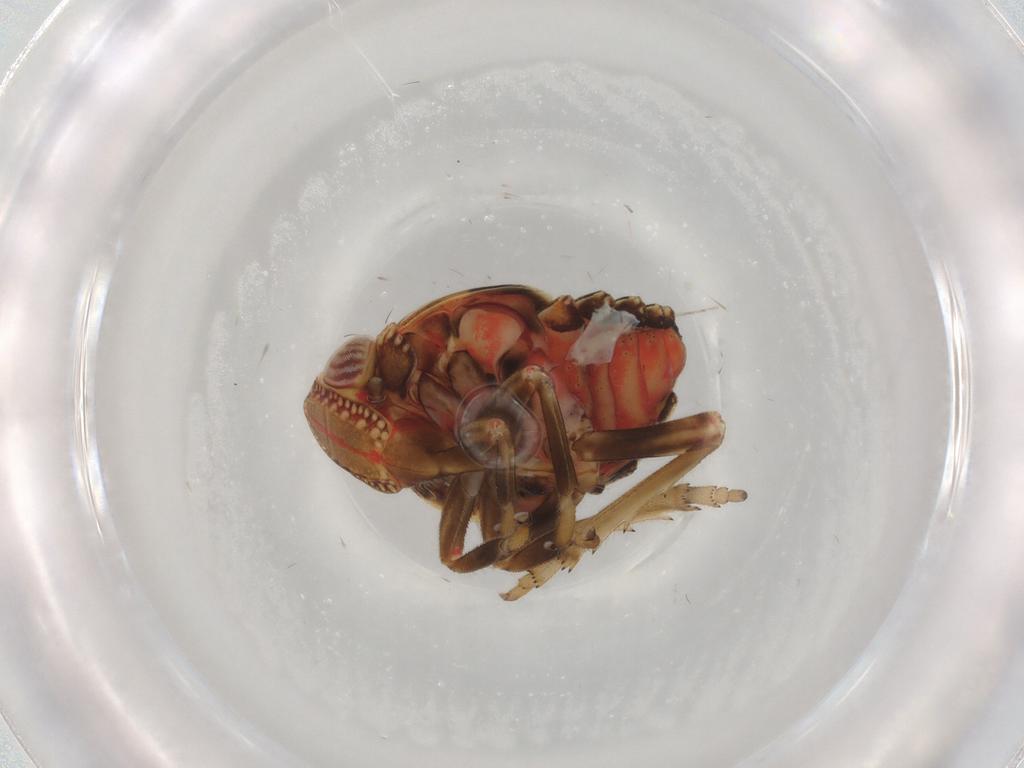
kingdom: Animalia
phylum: Arthropoda
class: Insecta
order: Hemiptera
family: Tropiduchidae
